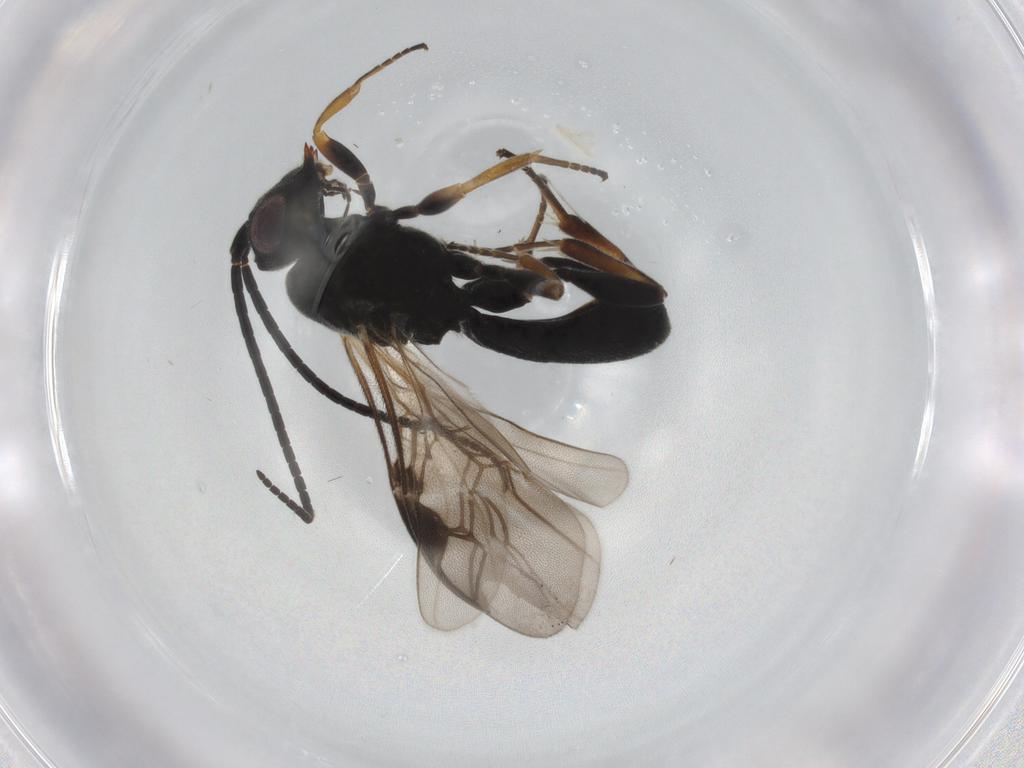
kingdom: Animalia
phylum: Arthropoda
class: Insecta
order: Hymenoptera
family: Braconidae
